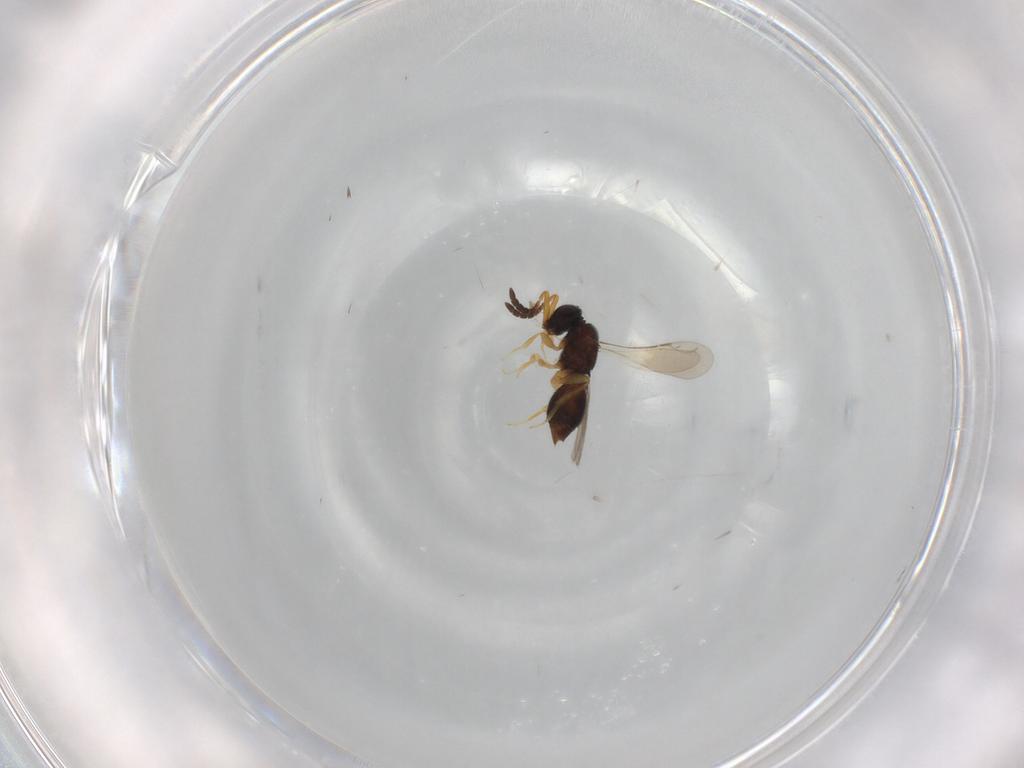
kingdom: Animalia
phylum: Arthropoda
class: Insecta
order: Hymenoptera
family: Ceraphronidae
